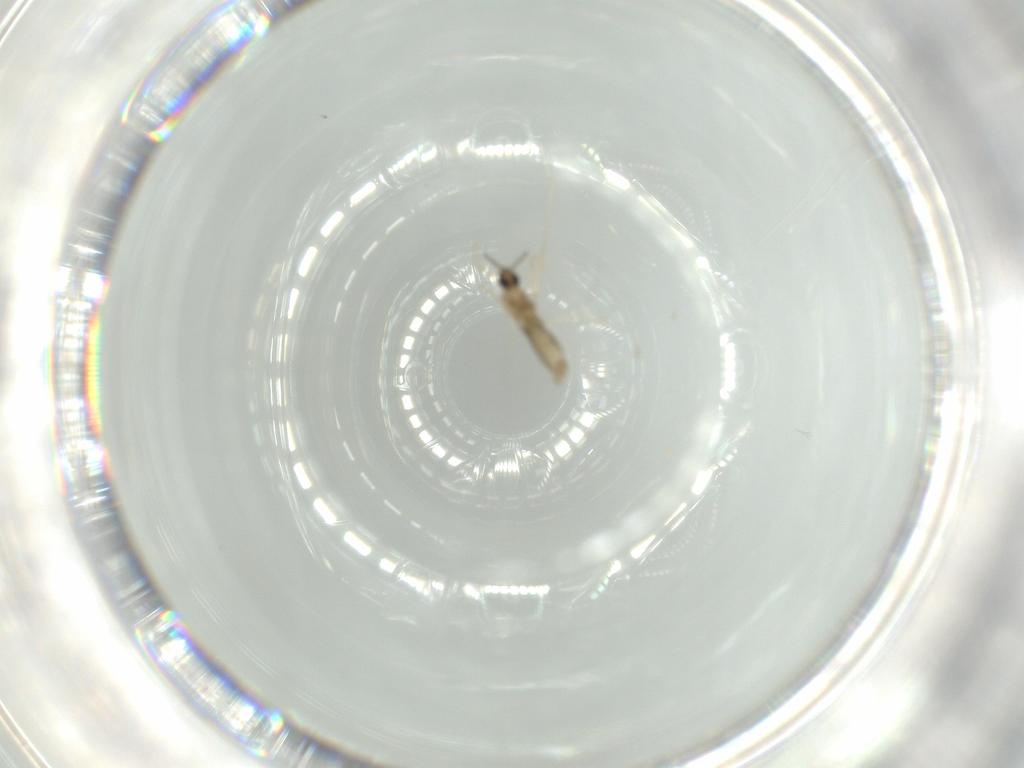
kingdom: Animalia
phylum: Arthropoda
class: Insecta
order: Diptera
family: Cecidomyiidae
